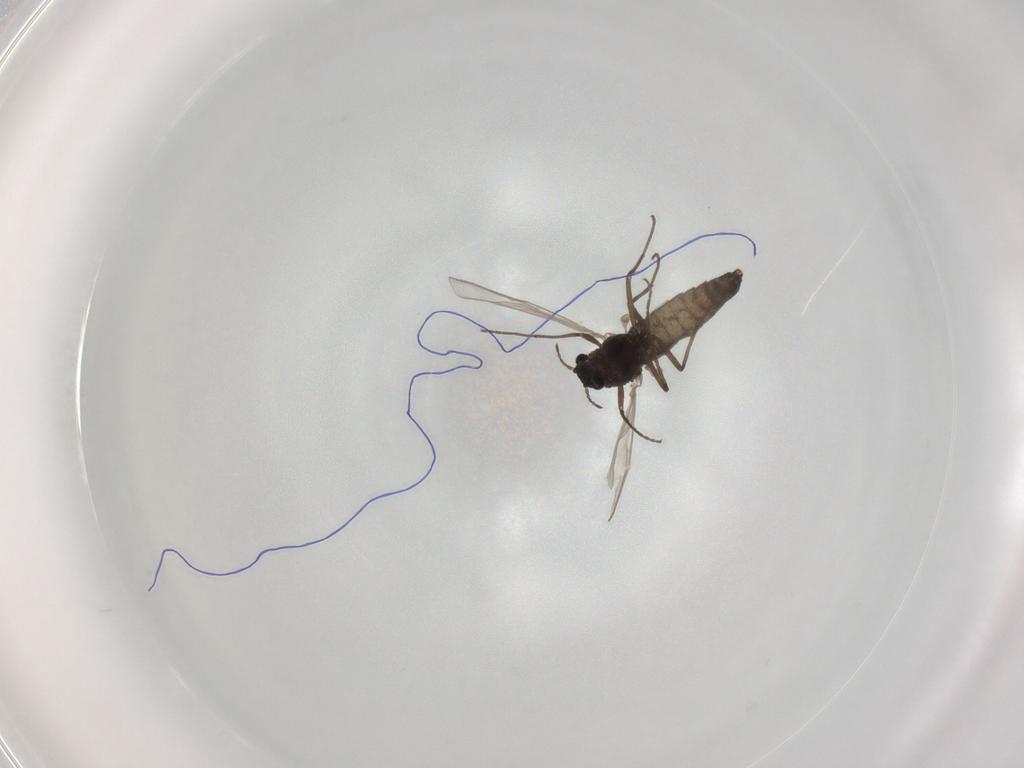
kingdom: Animalia
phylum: Arthropoda
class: Insecta
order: Diptera
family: Chironomidae
